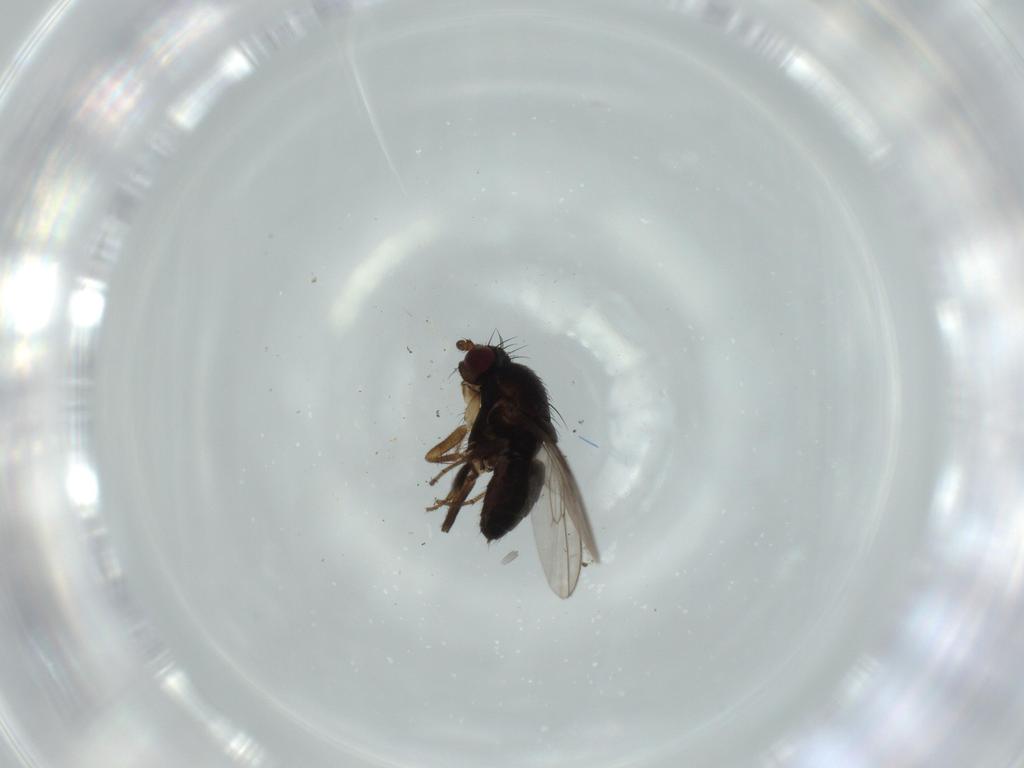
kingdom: Animalia
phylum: Arthropoda
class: Insecta
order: Diptera
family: Sphaeroceridae
